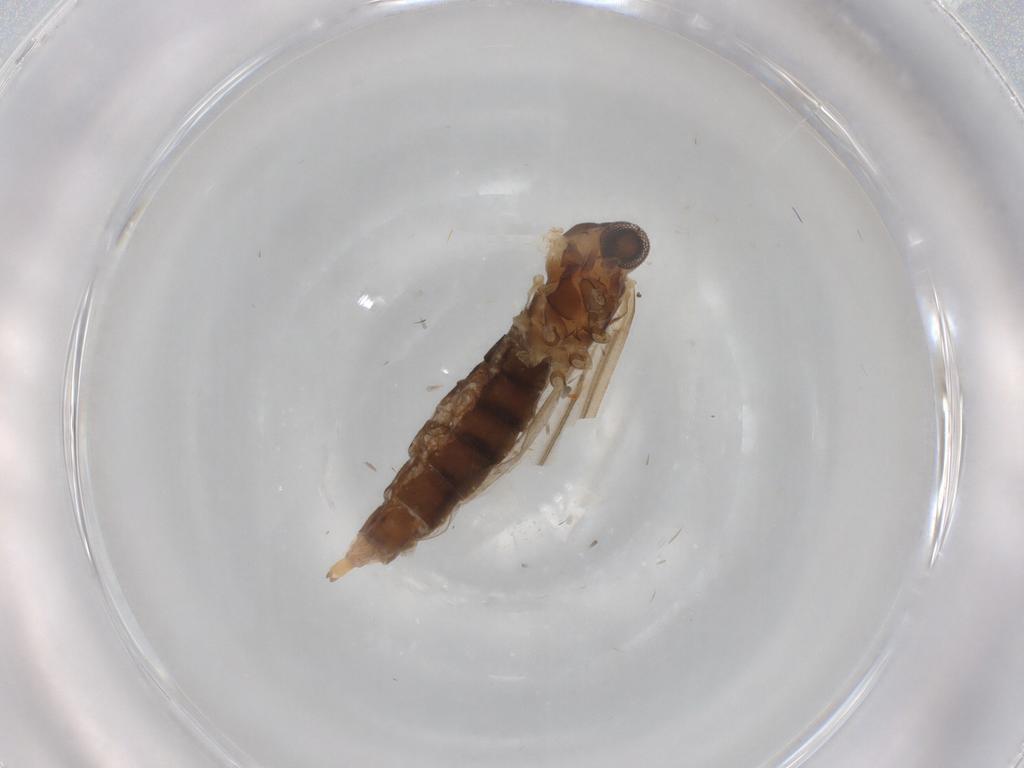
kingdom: Animalia
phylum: Arthropoda
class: Insecta
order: Diptera
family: Cecidomyiidae
